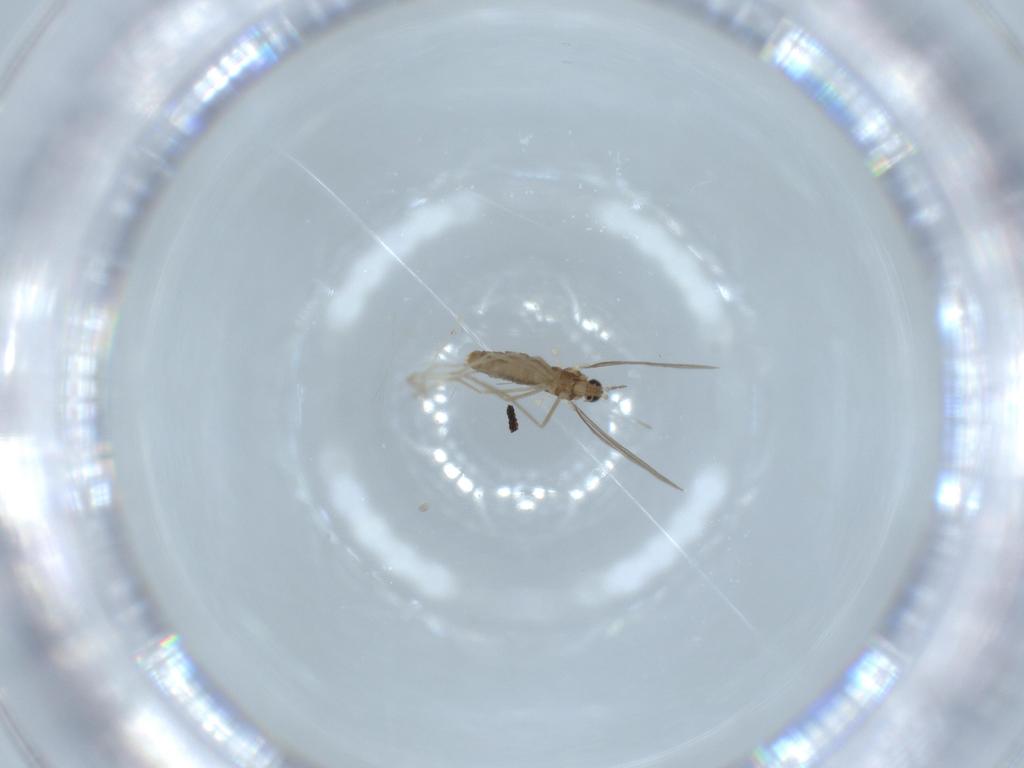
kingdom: Animalia
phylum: Arthropoda
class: Insecta
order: Diptera
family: Cecidomyiidae
